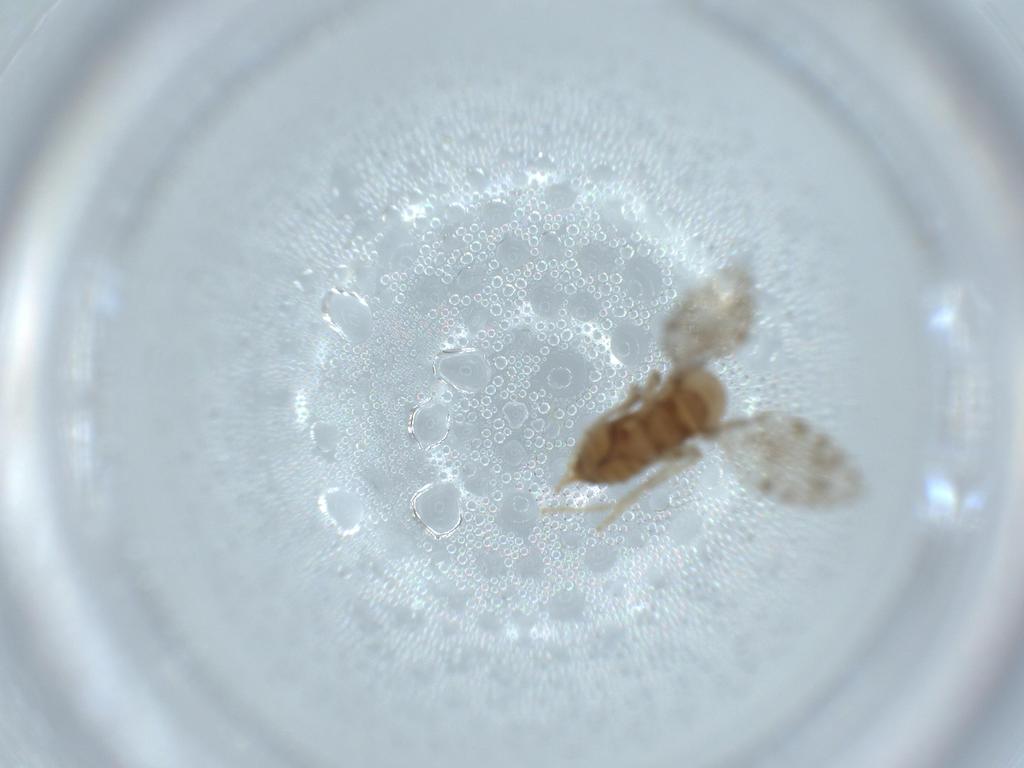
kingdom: Animalia
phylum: Arthropoda
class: Insecta
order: Diptera
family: Psychodidae
